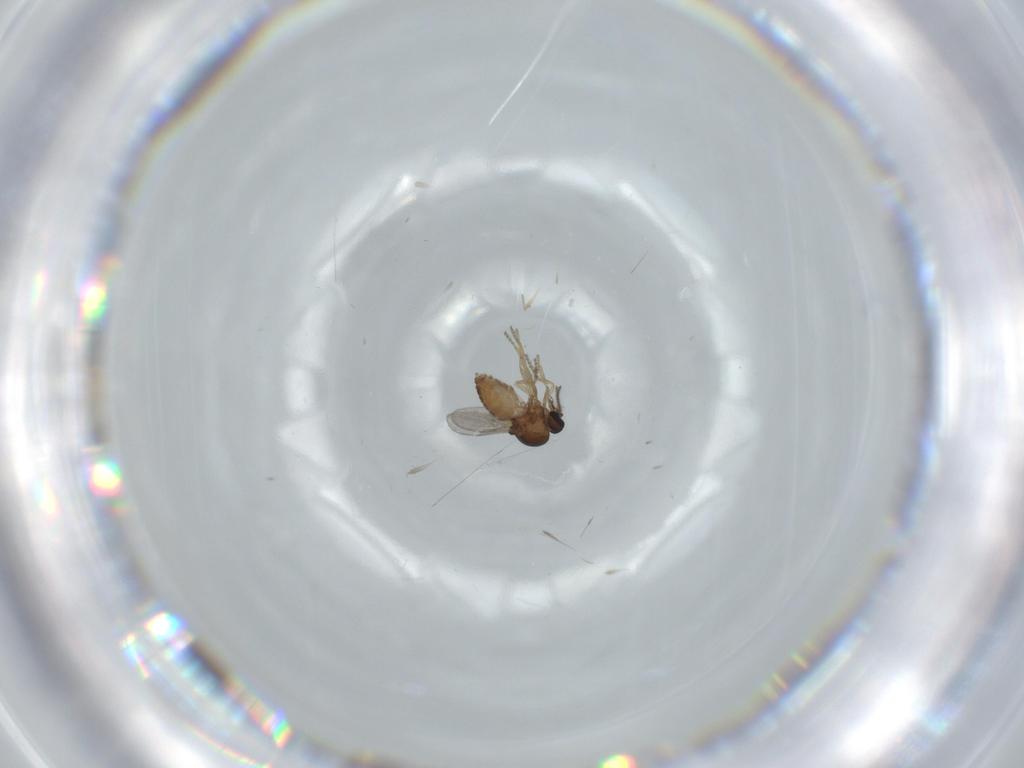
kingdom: Animalia
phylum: Arthropoda
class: Insecta
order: Diptera
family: Ceratopogonidae
